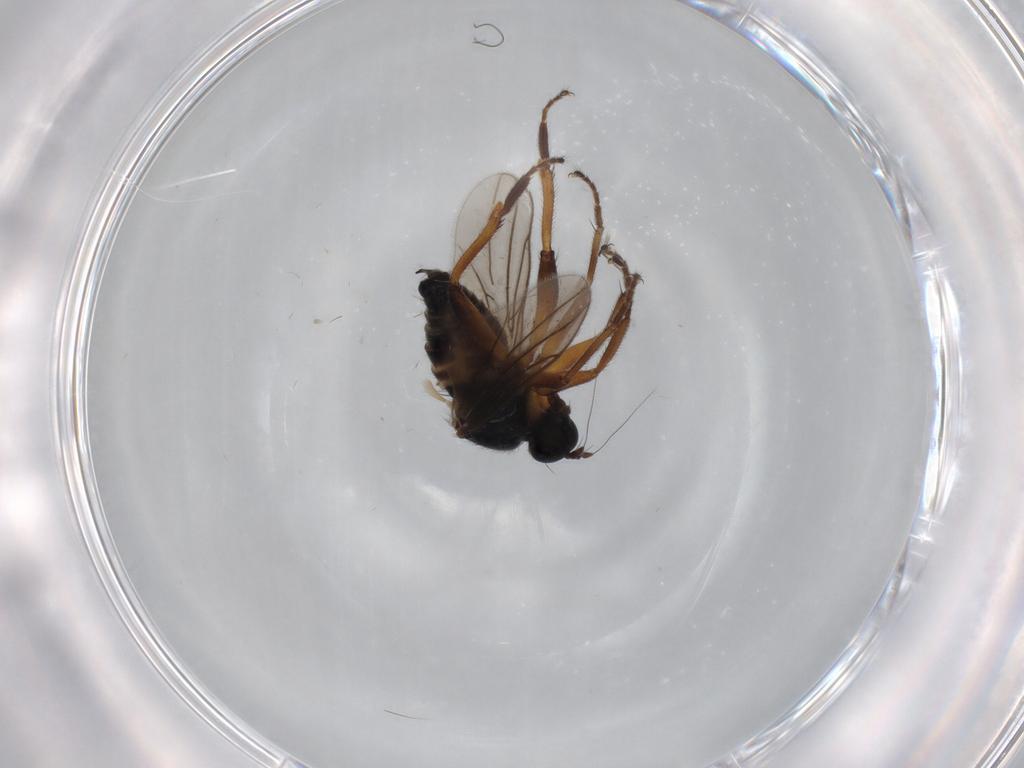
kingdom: Animalia
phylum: Arthropoda
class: Insecta
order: Diptera
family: Hybotidae
